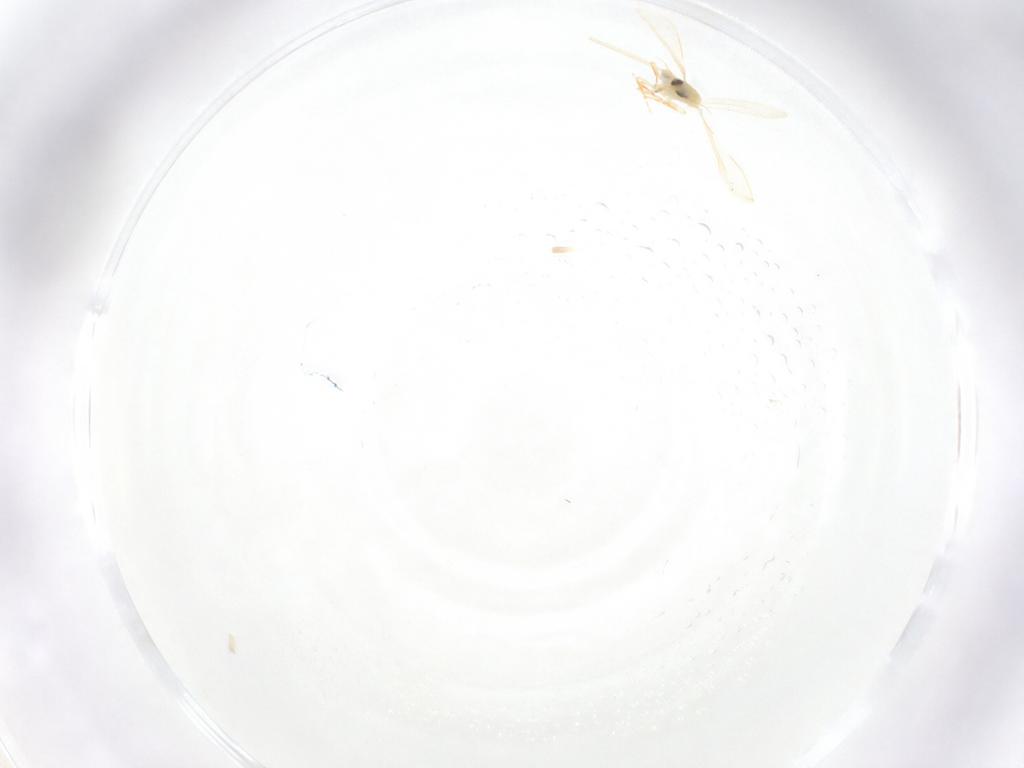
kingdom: Animalia
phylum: Arthropoda
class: Insecta
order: Hemiptera
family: Aleyrodidae
